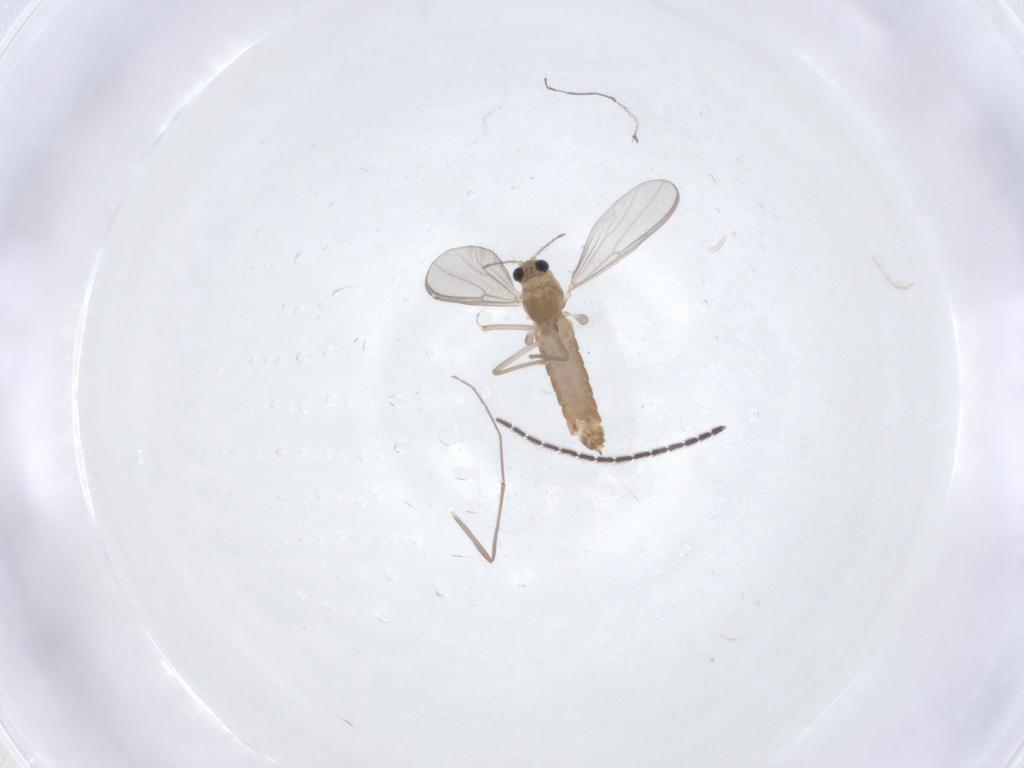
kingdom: Animalia
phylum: Arthropoda
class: Insecta
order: Diptera
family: Chironomidae
